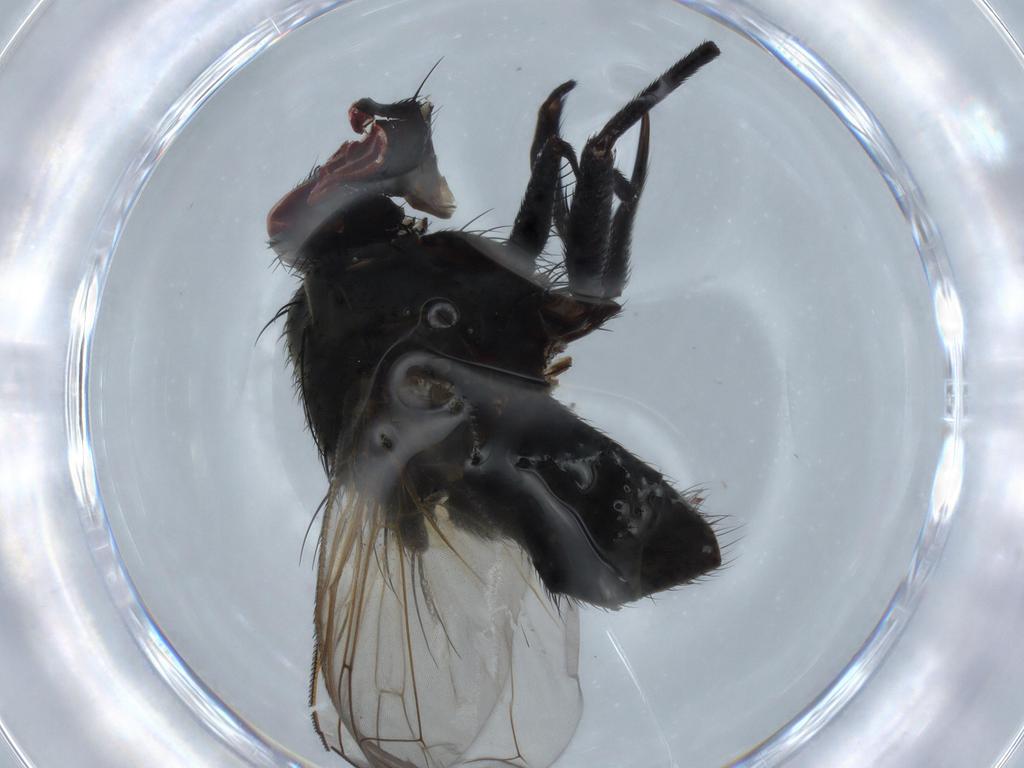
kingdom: Animalia
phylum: Arthropoda
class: Insecta
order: Diptera
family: Chloropidae
